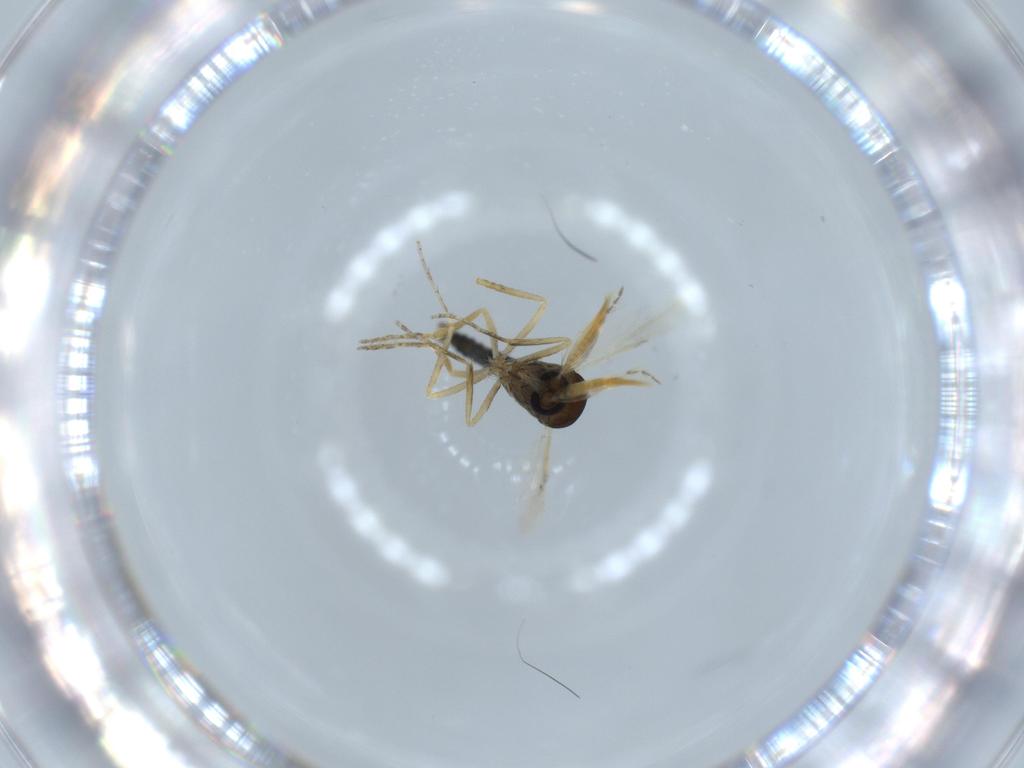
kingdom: Animalia
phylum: Arthropoda
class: Insecta
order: Diptera
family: Ceratopogonidae
